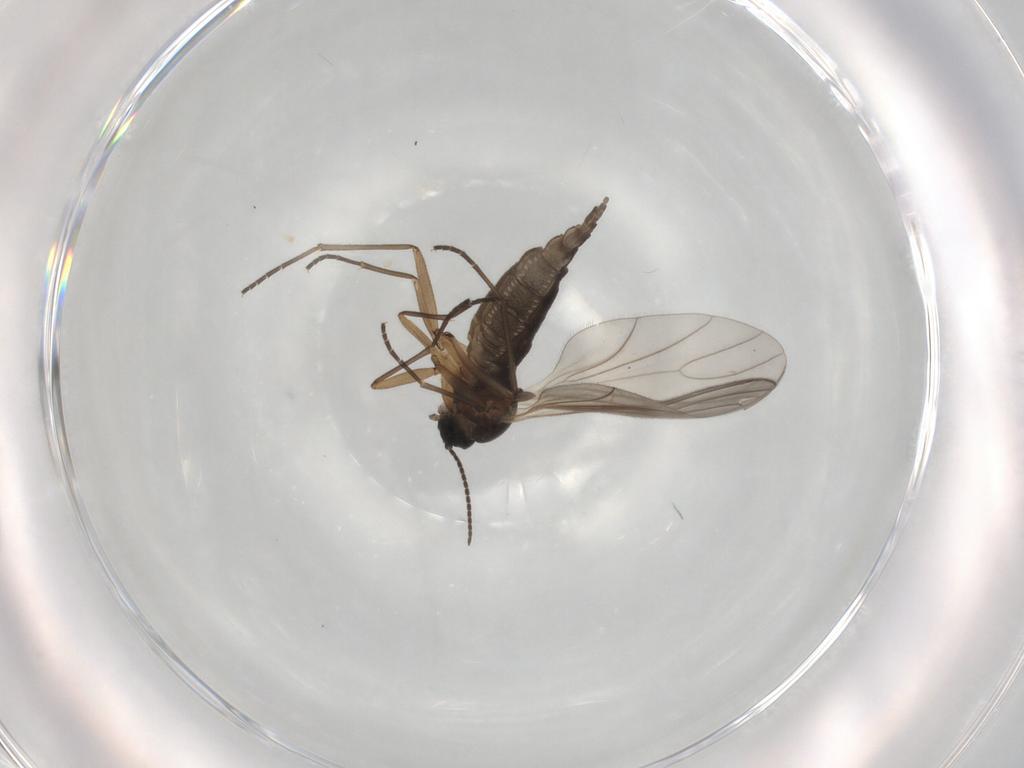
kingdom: Animalia
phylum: Arthropoda
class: Insecta
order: Diptera
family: Sciaridae
